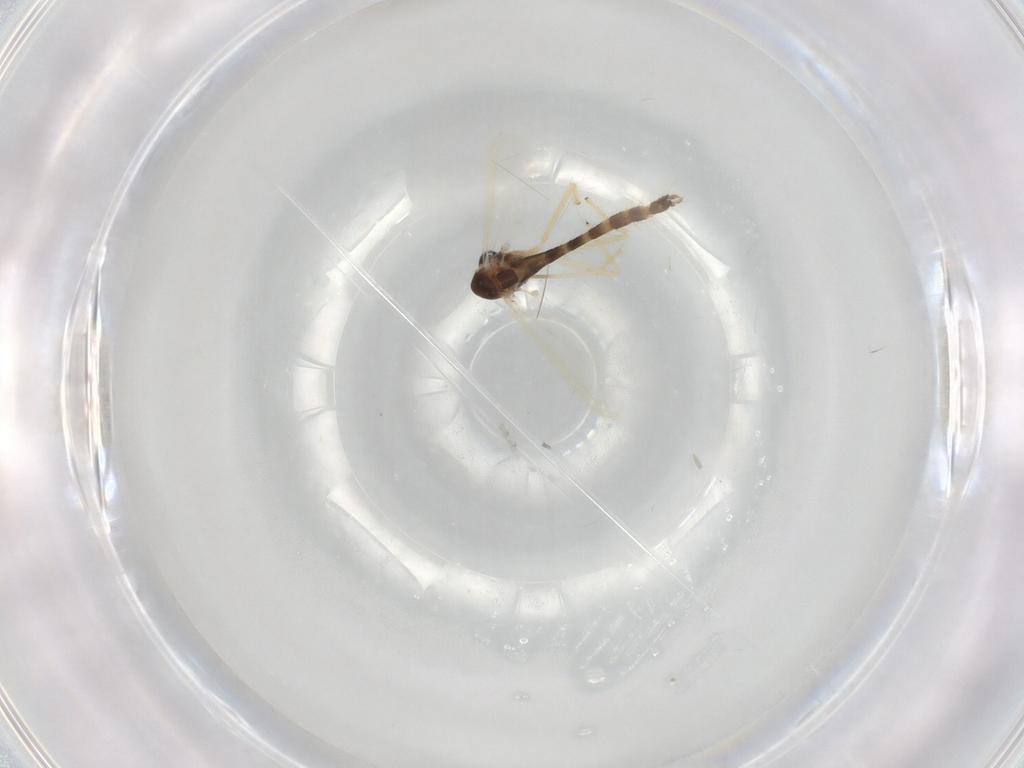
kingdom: Animalia
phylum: Arthropoda
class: Insecta
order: Diptera
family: Chironomidae
